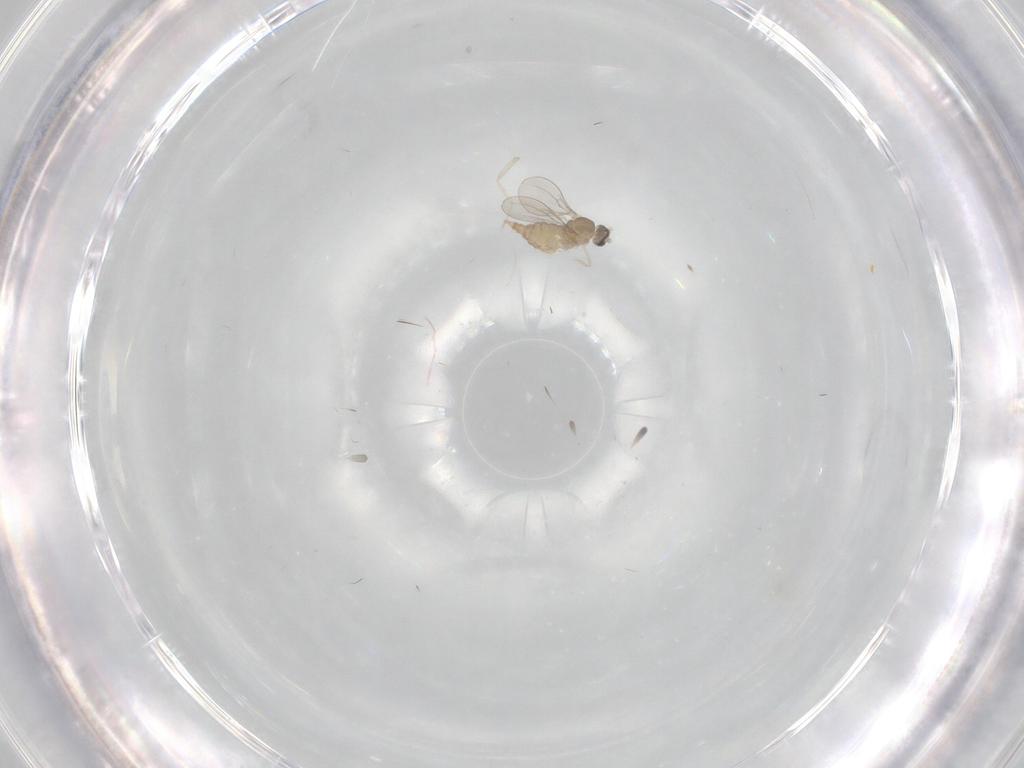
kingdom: Animalia
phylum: Arthropoda
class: Insecta
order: Diptera
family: Cecidomyiidae
